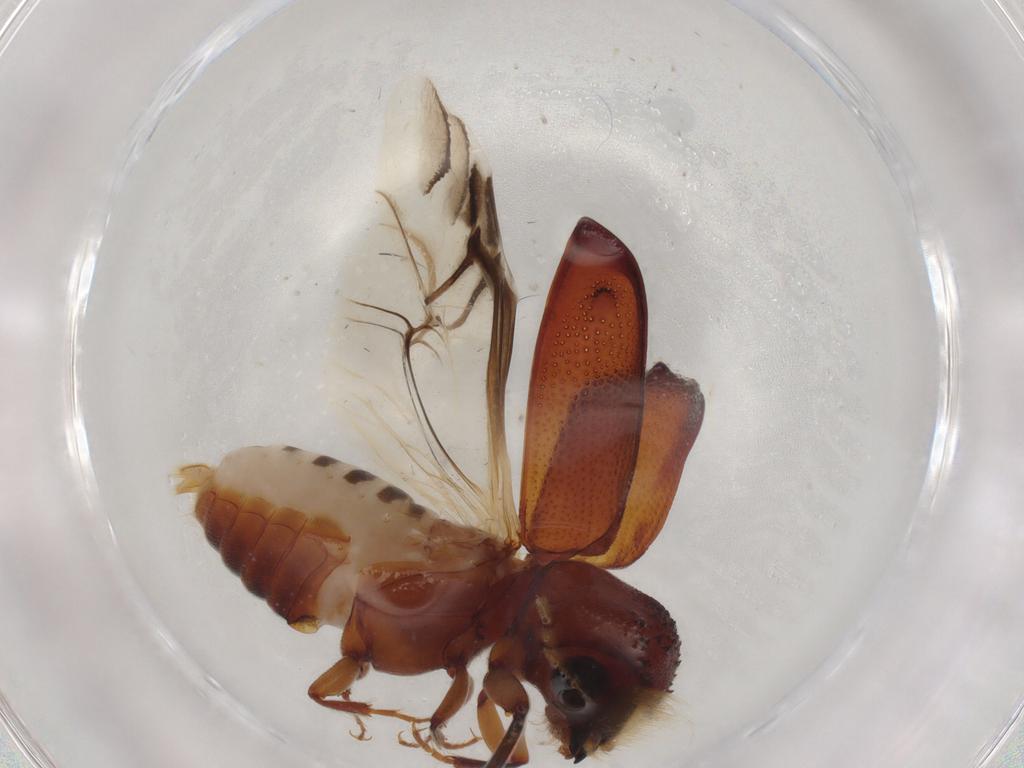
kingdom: Animalia
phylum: Arthropoda
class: Insecta
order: Coleoptera
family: Bostrichidae
